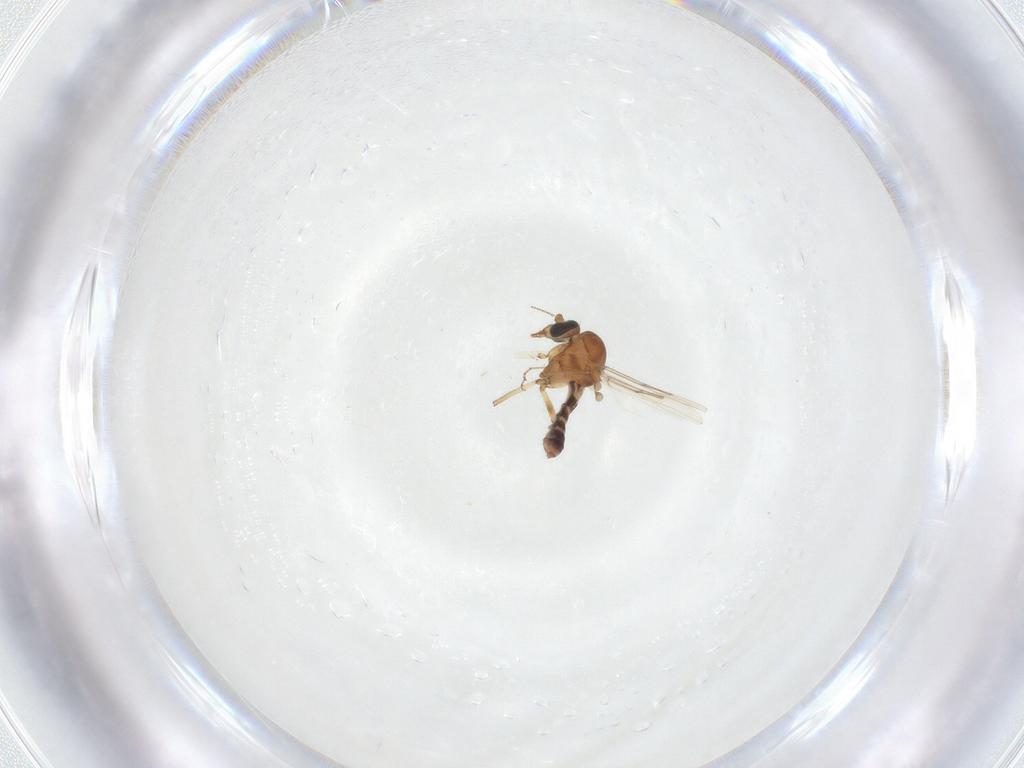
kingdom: Animalia
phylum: Arthropoda
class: Insecta
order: Diptera
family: Ceratopogonidae
